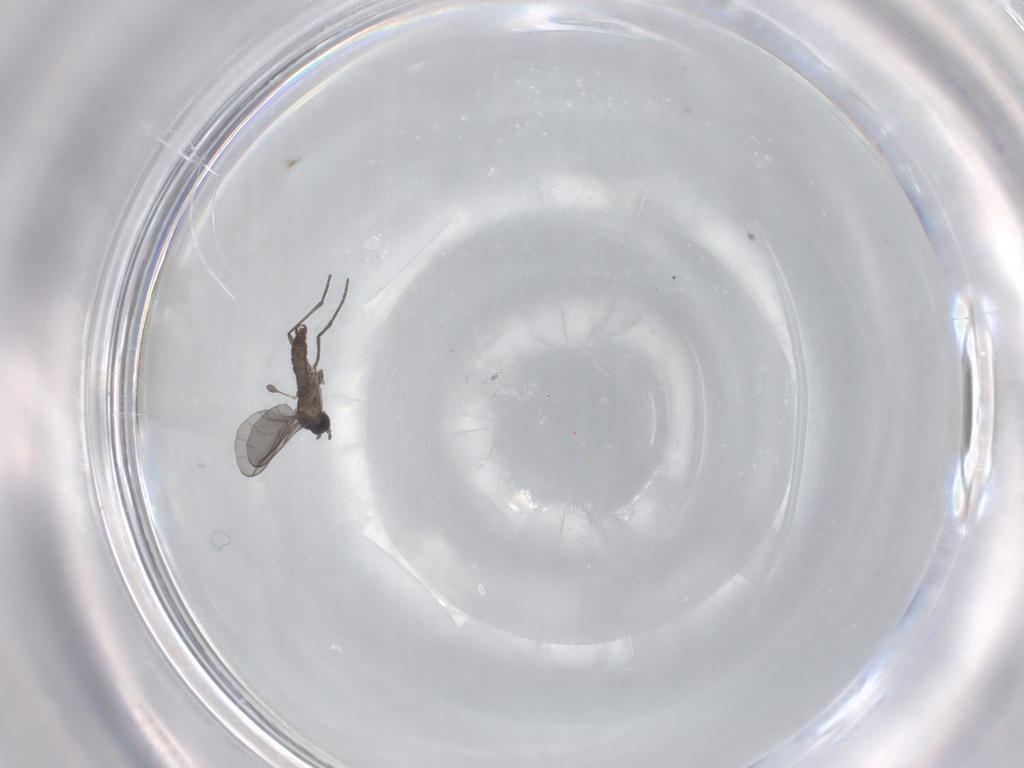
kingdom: Animalia
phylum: Arthropoda
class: Insecta
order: Diptera
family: Sciaridae
